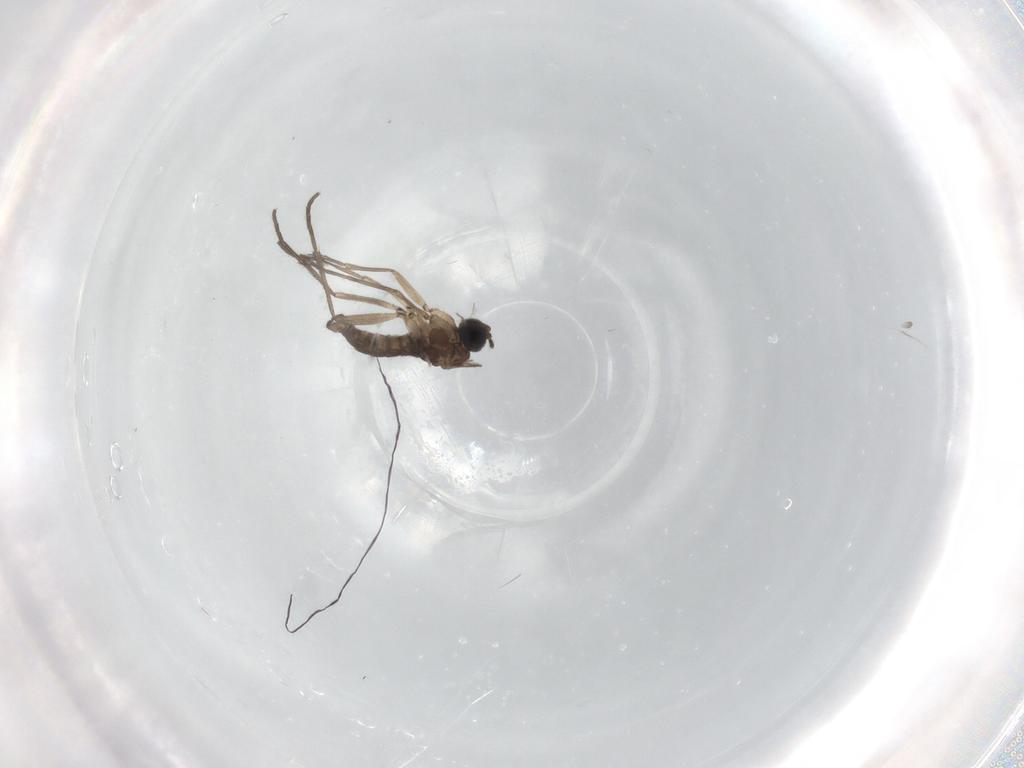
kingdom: Animalia
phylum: Arthropoda
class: Insecta
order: Diptera
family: Sciaridae
